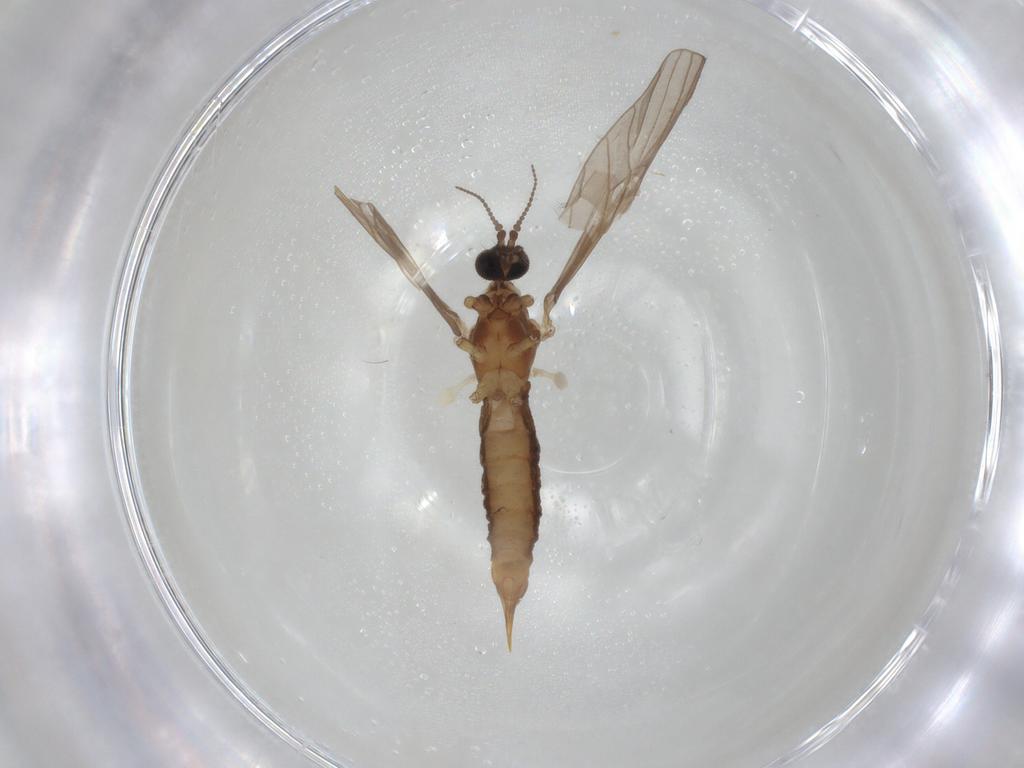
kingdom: Animalia
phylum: Arthropoda
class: Insecta
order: Diptera
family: Limoniidae
